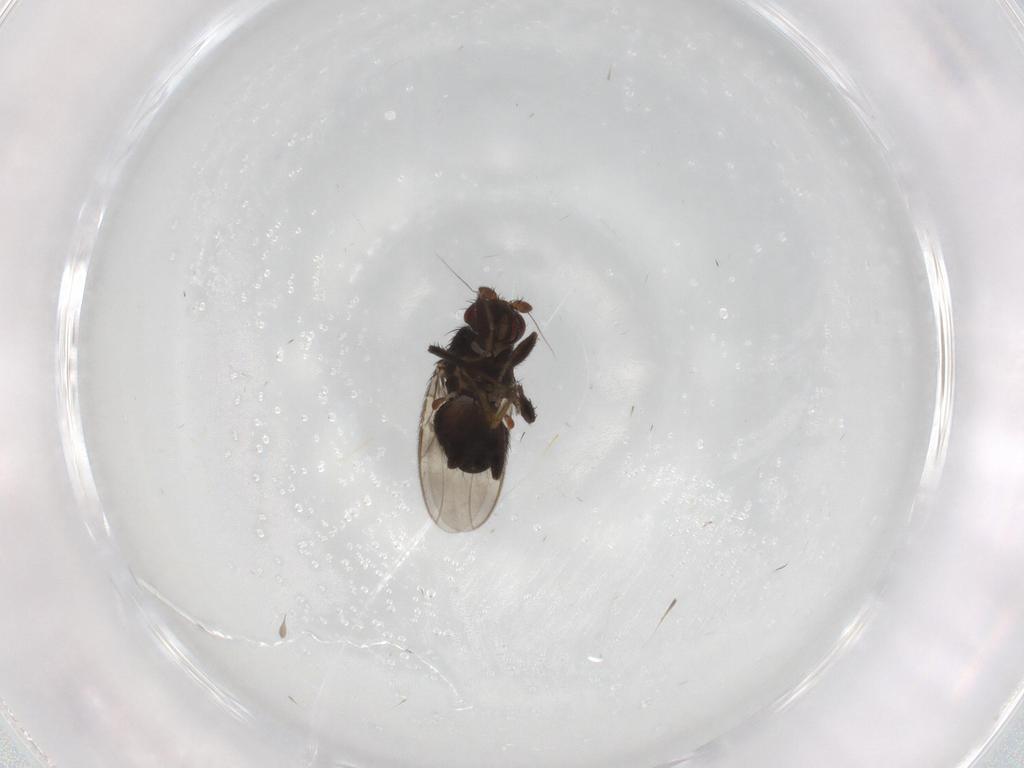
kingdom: Animalia
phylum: Arthropoda
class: Insecta
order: Diptera
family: Sphaeroceridae
